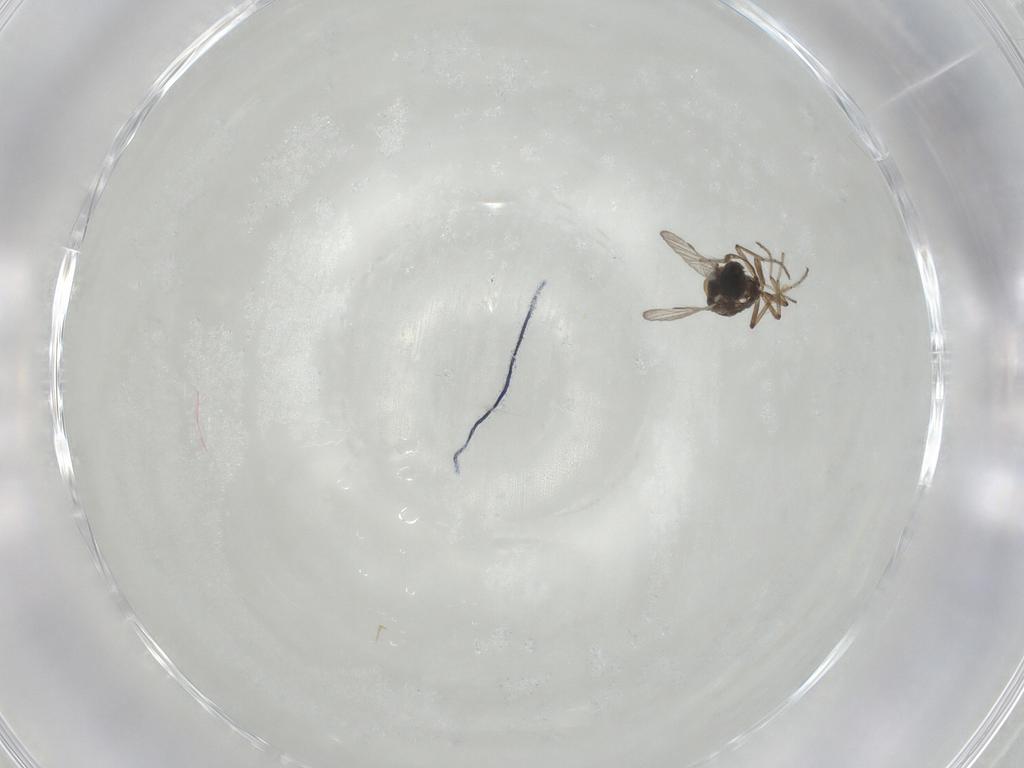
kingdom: Animalia
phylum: Arthropoda
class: Insecta
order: Diptera
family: Ceratopogonidae
